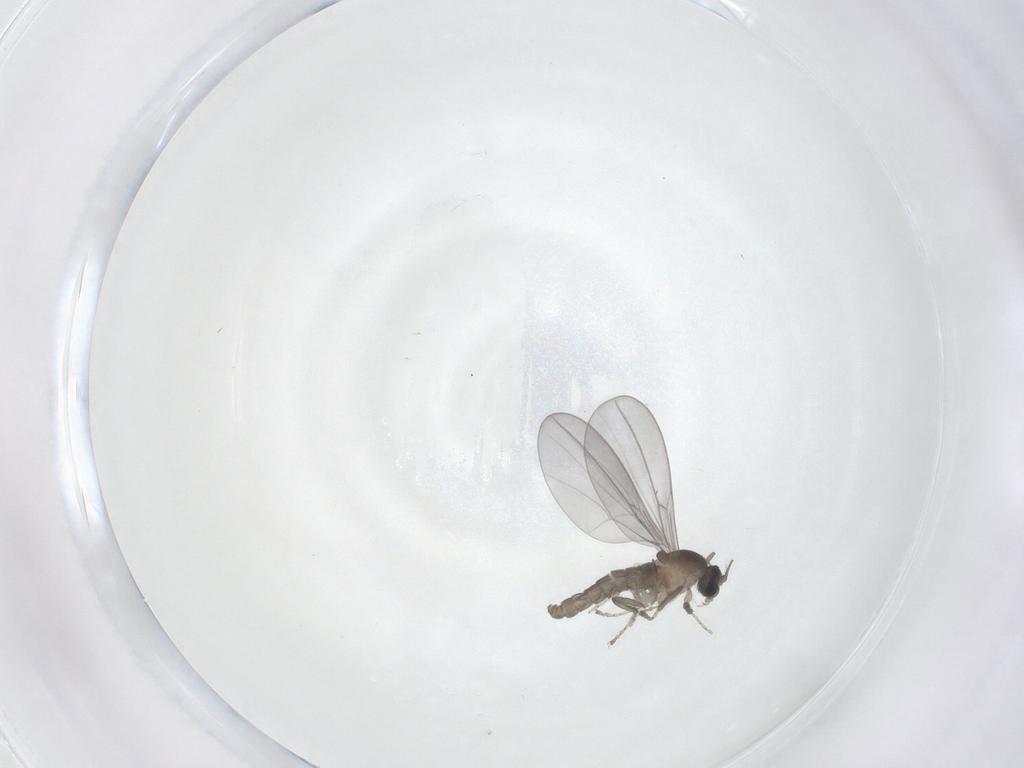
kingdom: Animalia
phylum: Arthropoda
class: Insecta
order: Diptera
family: Cecidomyiidae
